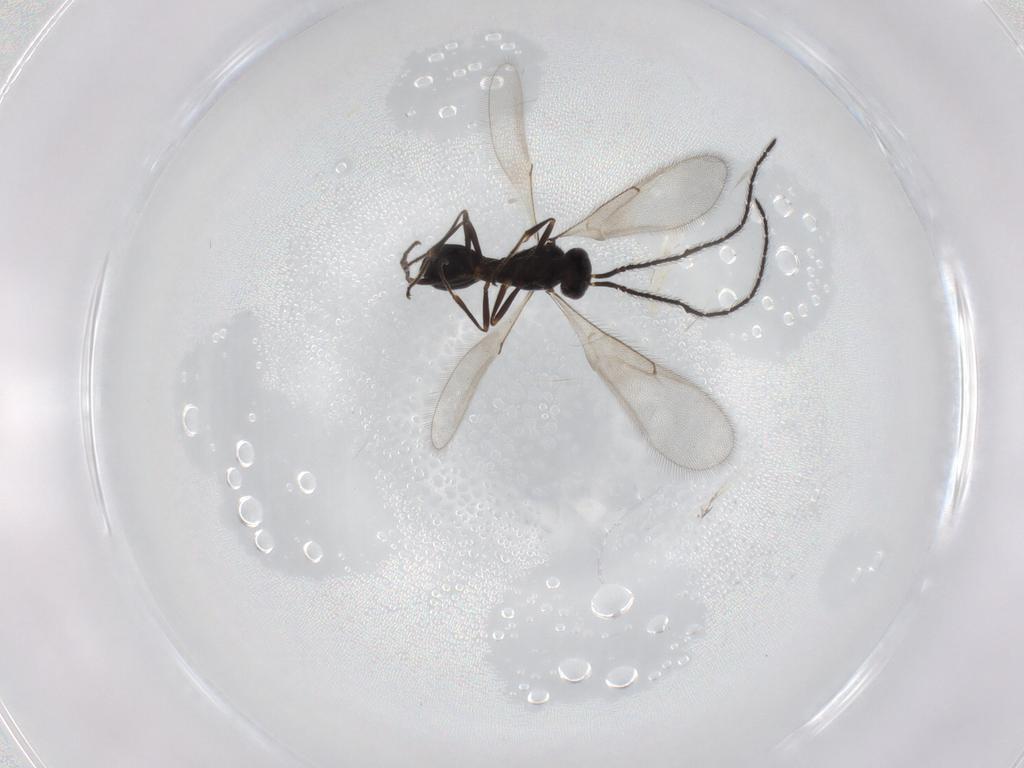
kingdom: Animalia
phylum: Arthropoda
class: Insecta
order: Hymenoptera
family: Scelionidae
